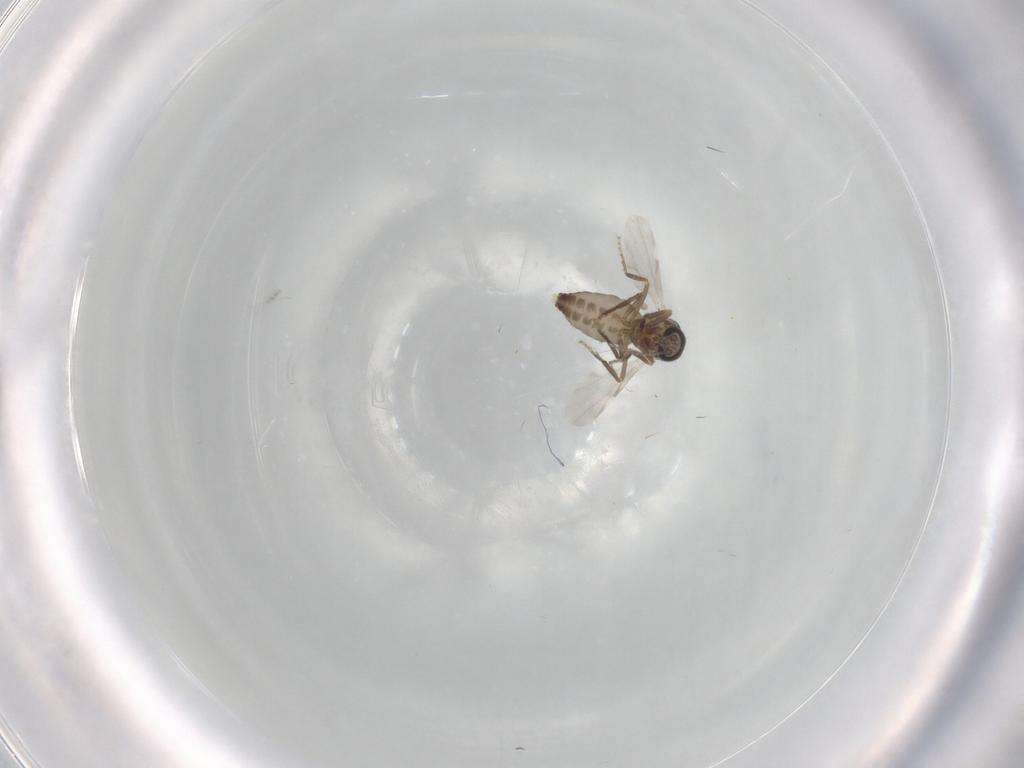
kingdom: Animalia
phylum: Arthropoda
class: Insecta
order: Diptera
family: Ceratopogonidae
